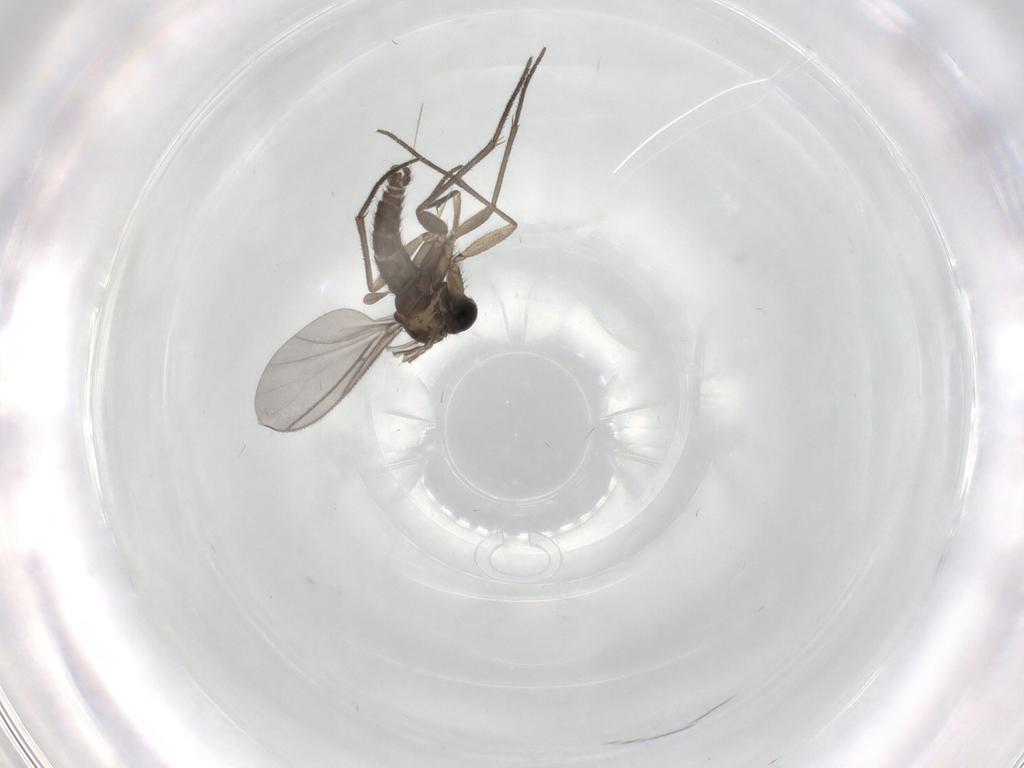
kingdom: Animalia
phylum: Arthropoda
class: Insecta
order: Diptera
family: Sciaridae
